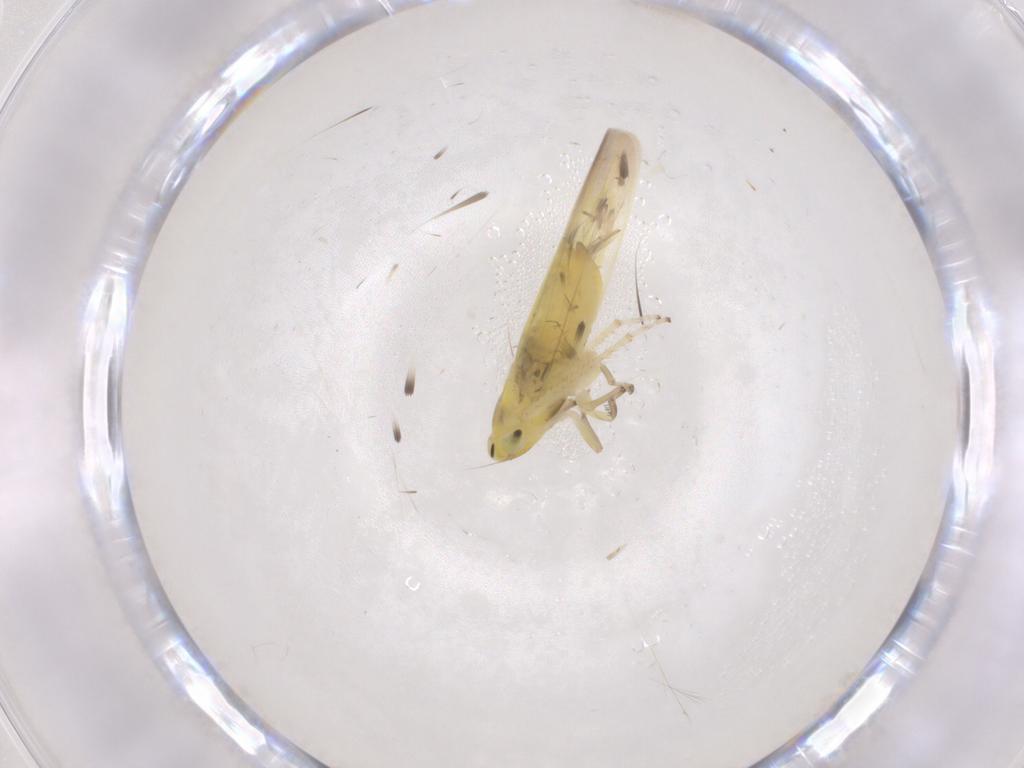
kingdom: Animalia
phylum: Arthropoda
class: Insecta
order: Hemiptera
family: Cicadellidae
